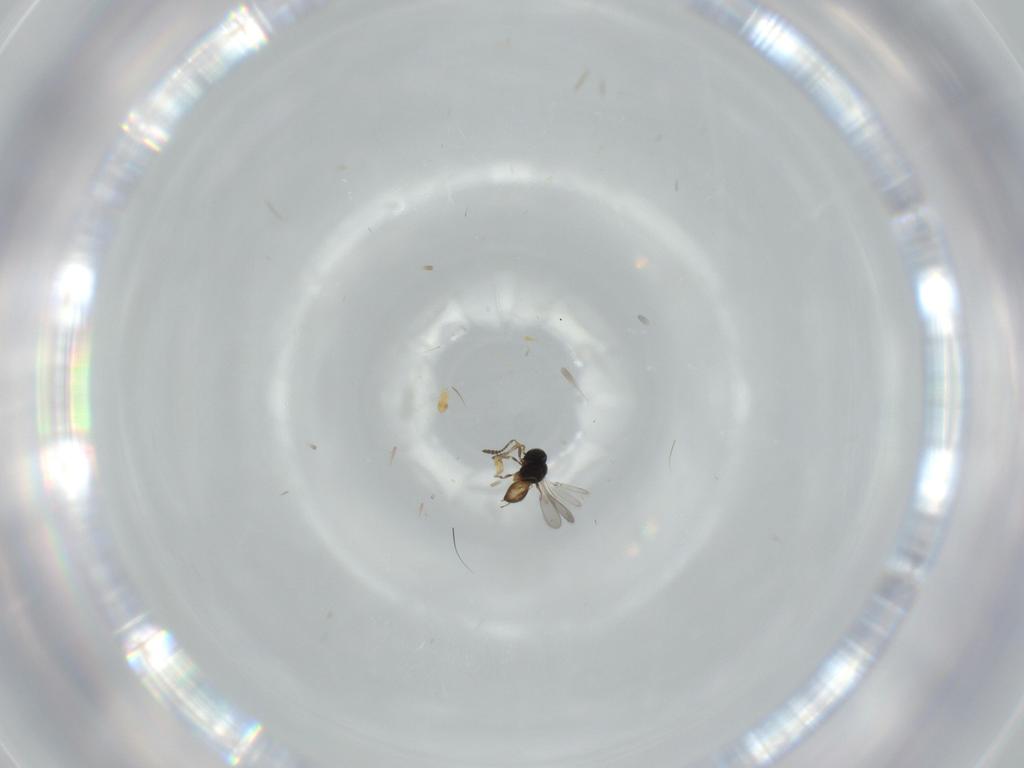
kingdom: Animalia
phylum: Arthropoda
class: Insecta
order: Hymenoptera
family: Scelionidae
